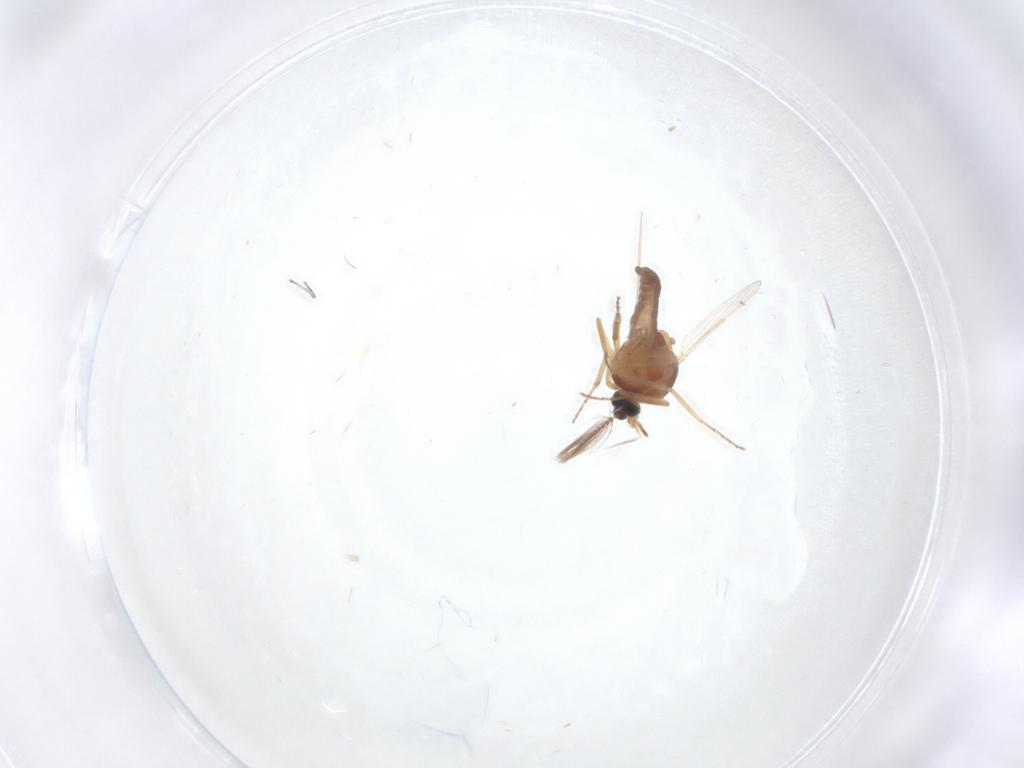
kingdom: Animalia
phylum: Arthropoda
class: Insecta
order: Diptera
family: Ceratopogonidae
